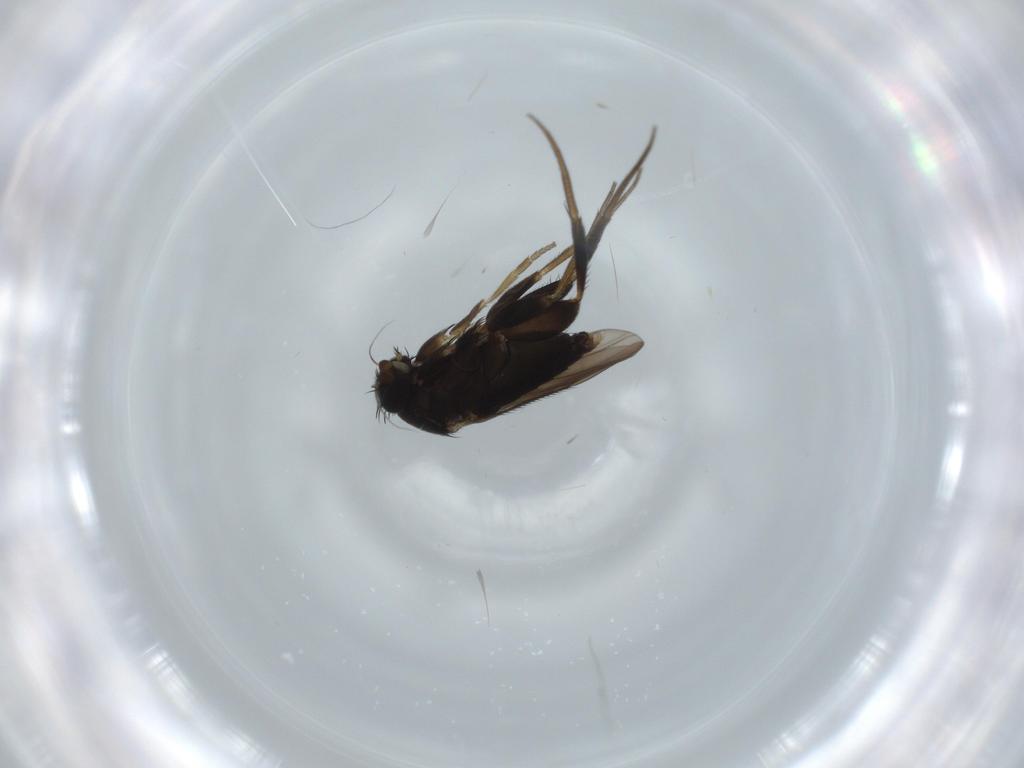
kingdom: Animalia
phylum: Arthropoda
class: Insecta
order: Diptera
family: Phoridae
